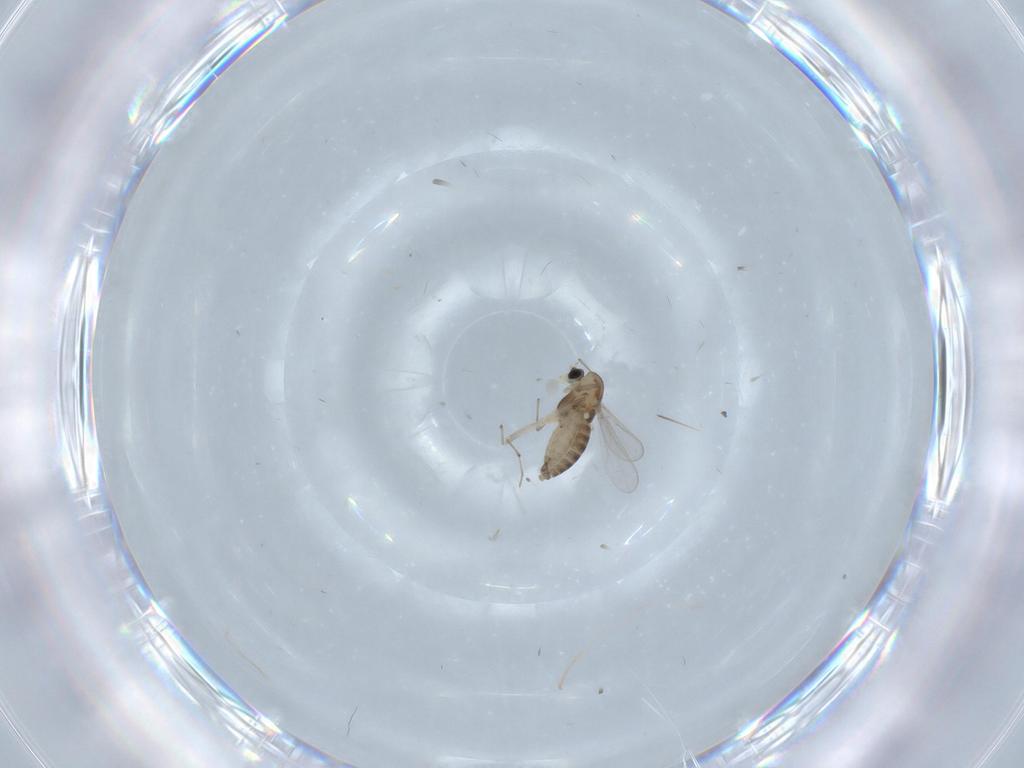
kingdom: Animalia
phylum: Arthropoda
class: Insecta
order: Diptera
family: Chironomidae
